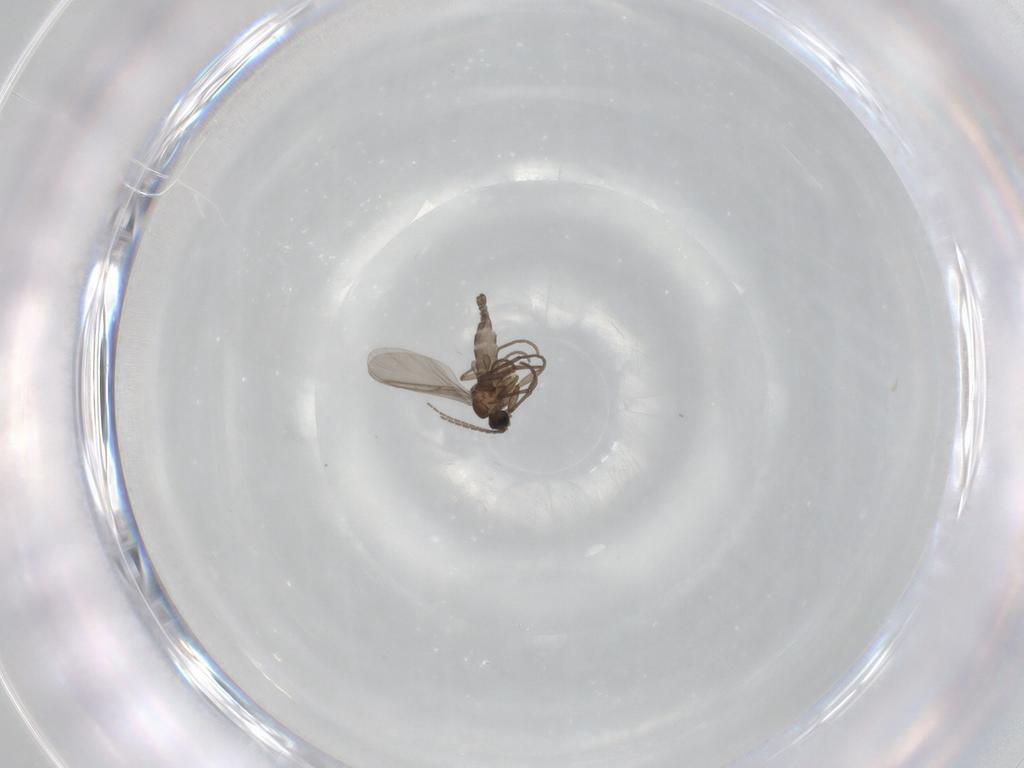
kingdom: Animalia
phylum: Arthropoda
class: Insecta
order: Diptera
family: Sciaridae
